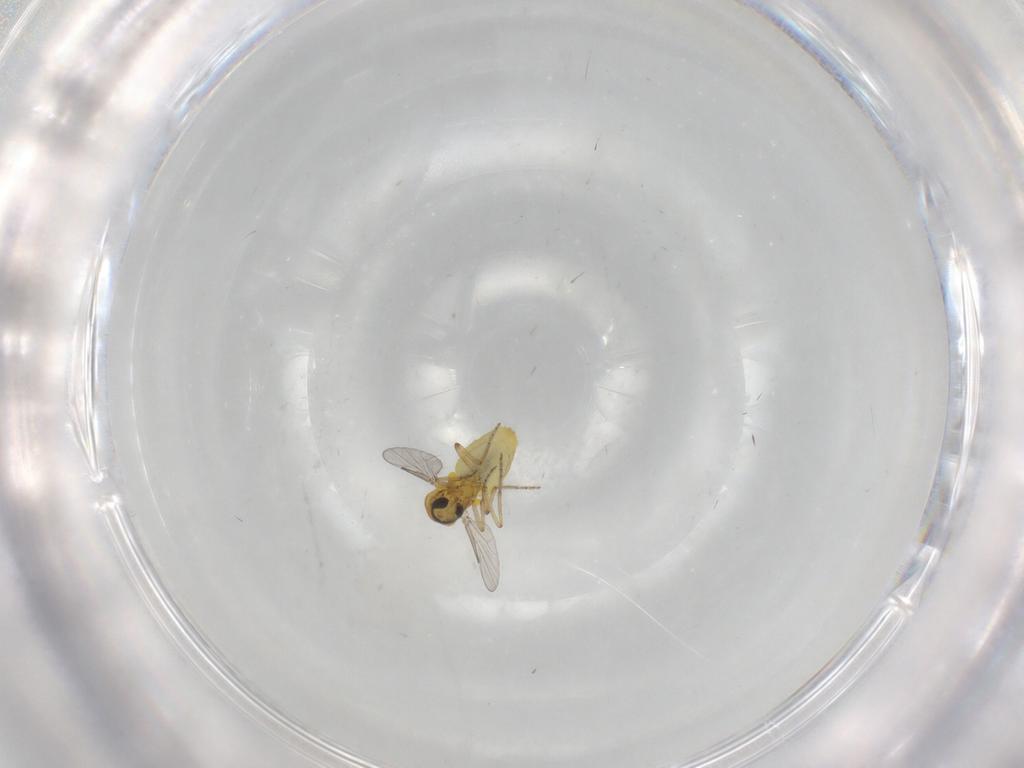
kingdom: Animalia
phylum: Arthropoda
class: Insecta
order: Diptera
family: Ceratopogonidae
